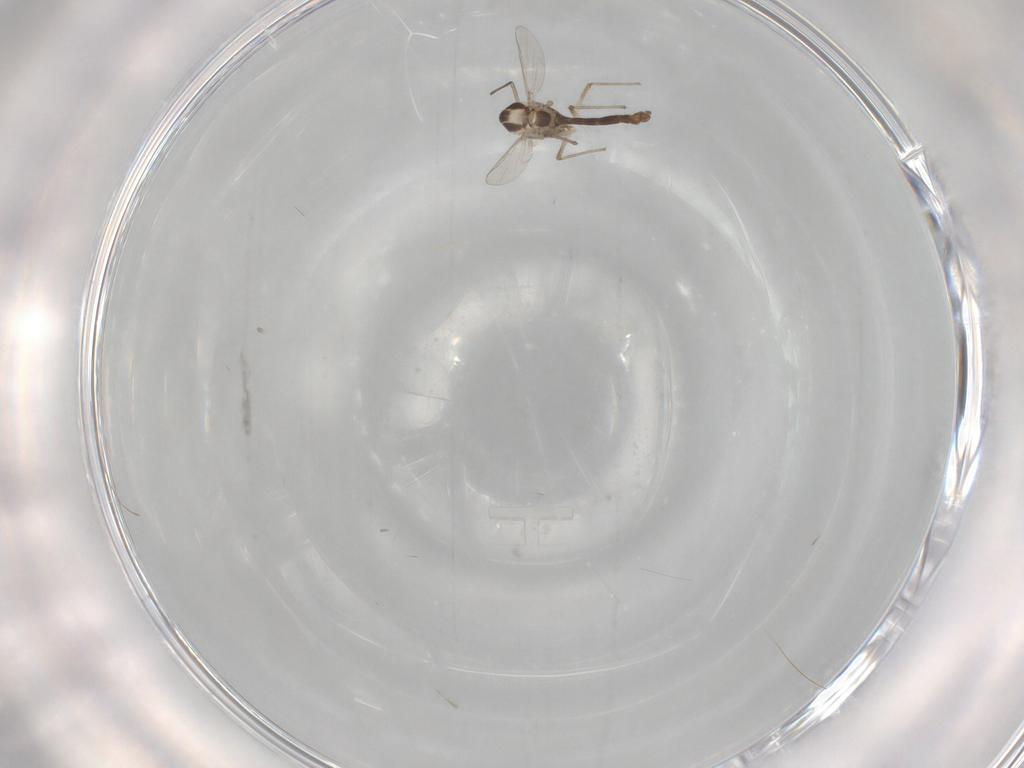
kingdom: Animalia
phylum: Arthropoda
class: Insecta
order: Diptera
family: Chironomidae
